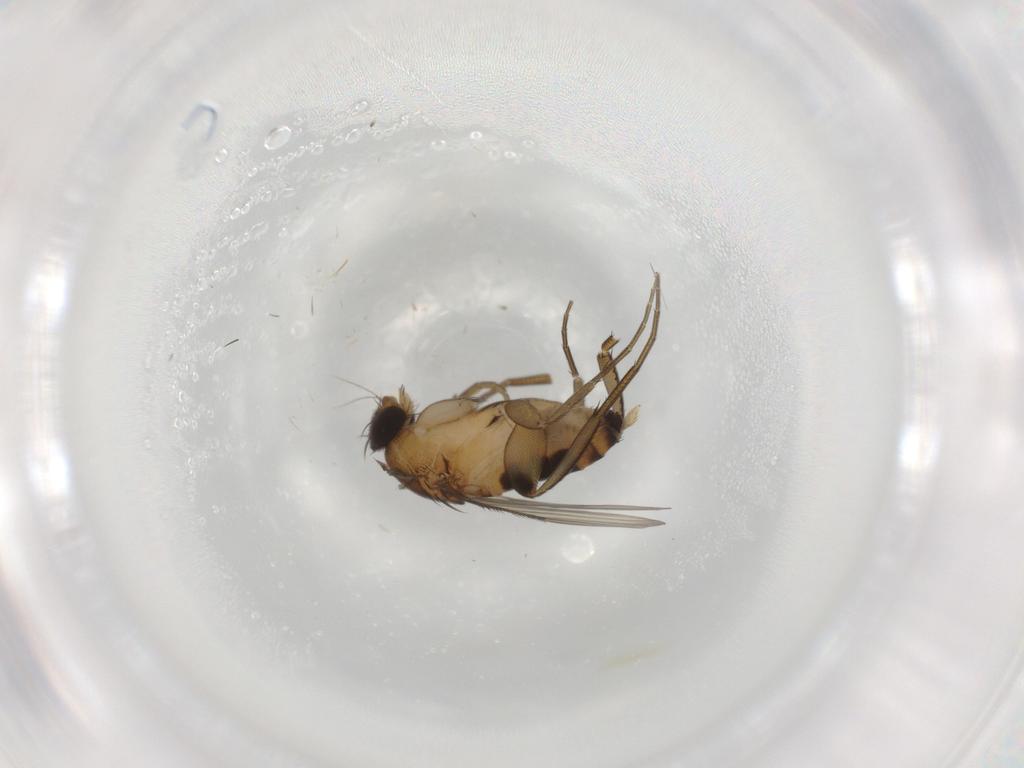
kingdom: Animalia
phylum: Arthropoda
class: Insecta
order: Diptera
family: Phoridae
